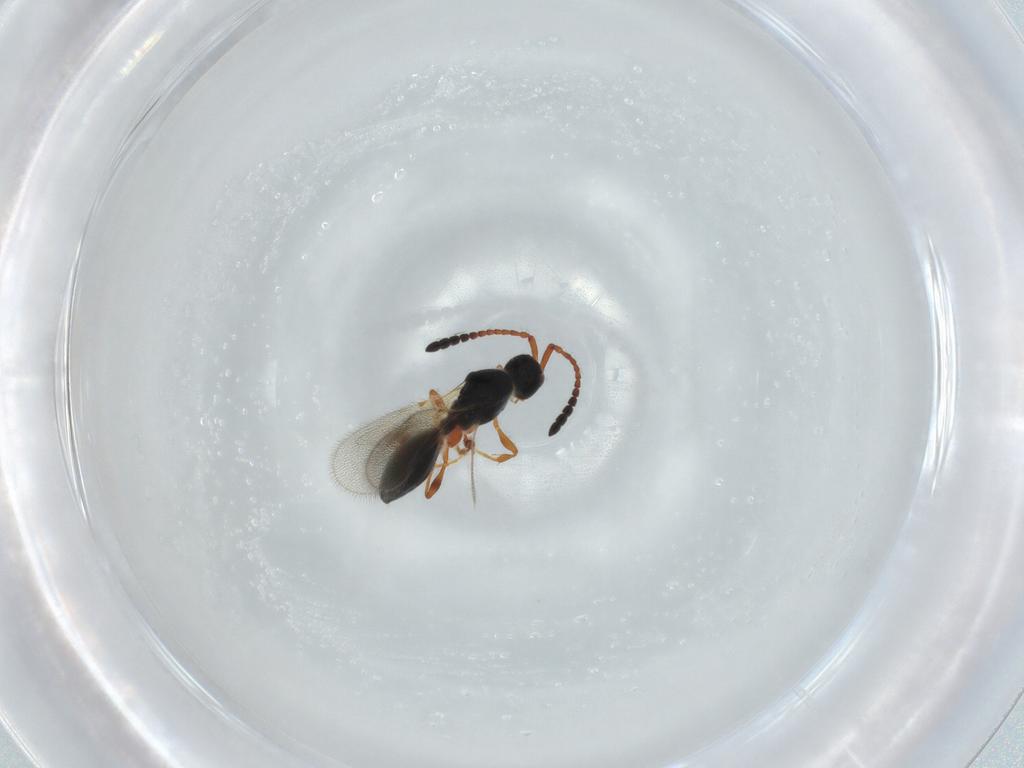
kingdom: Animalia
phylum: Arthropoda
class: Insecta
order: Hymenoptera
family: Diapriidae
